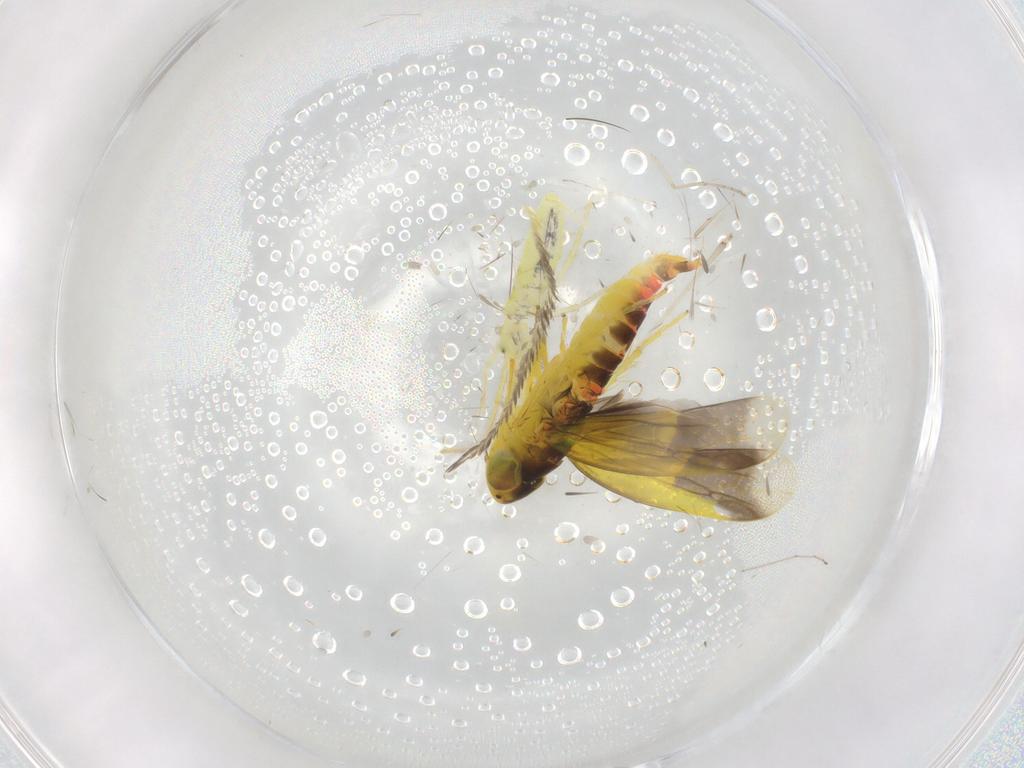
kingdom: Animalia
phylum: Arthropoda
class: Insecta
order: Hemiptera
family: Cicadellidae
